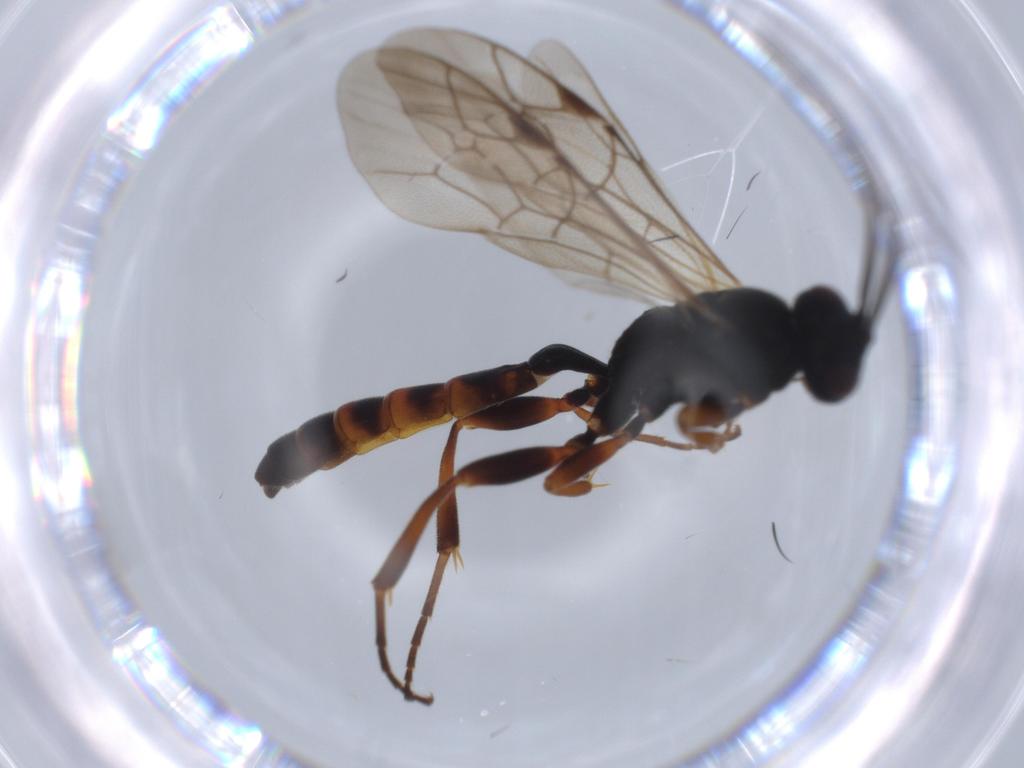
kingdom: Animalia
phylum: Arthropoda
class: Insecta
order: Hymenoptera
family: Ichneumonidae
